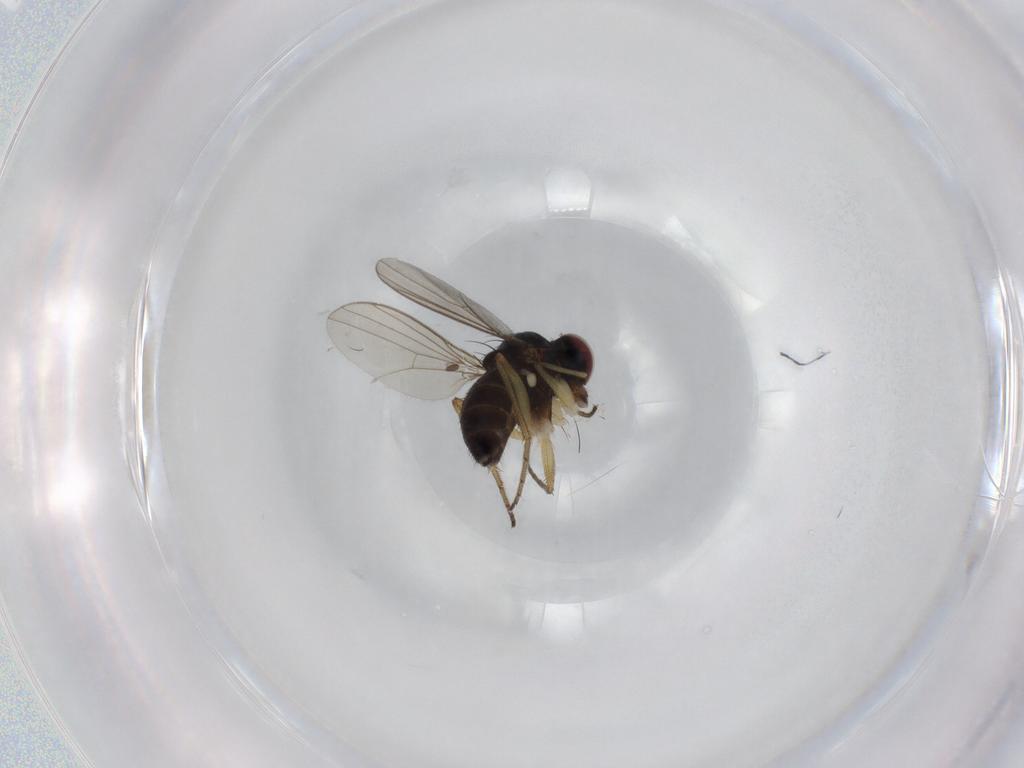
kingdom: Animalia
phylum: Arthropoda
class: Insecta
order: Diptera
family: Dolichopodidae
